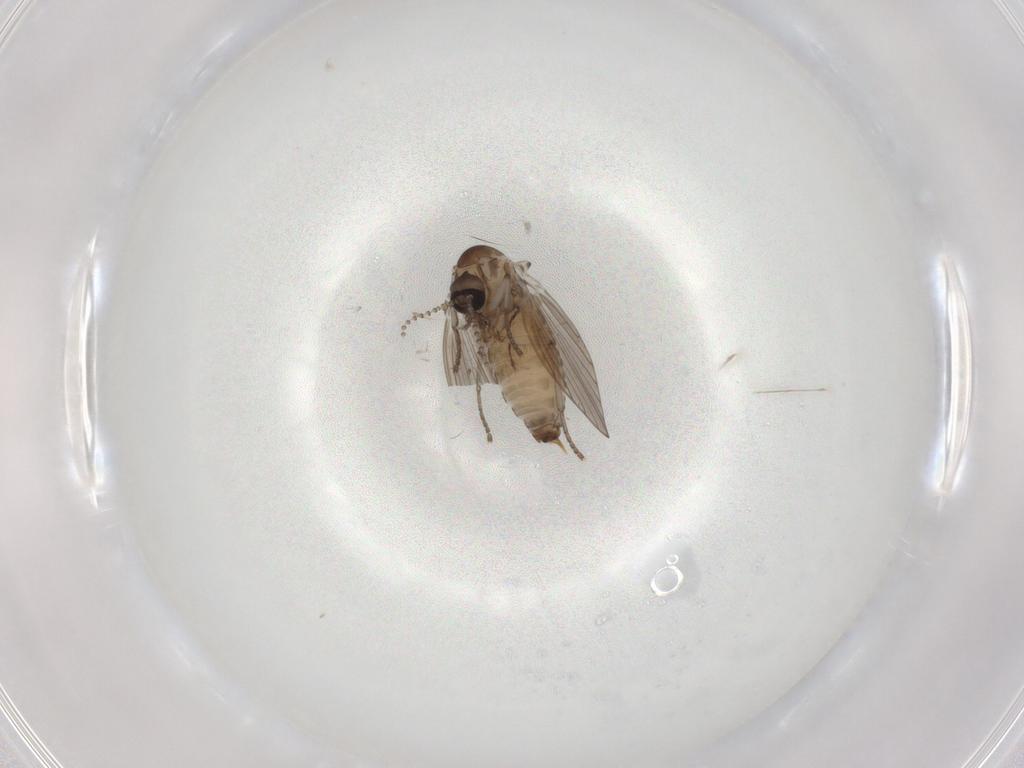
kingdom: Animalia
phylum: Arthropoda
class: Insecta
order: Diptera
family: Psychodidae
